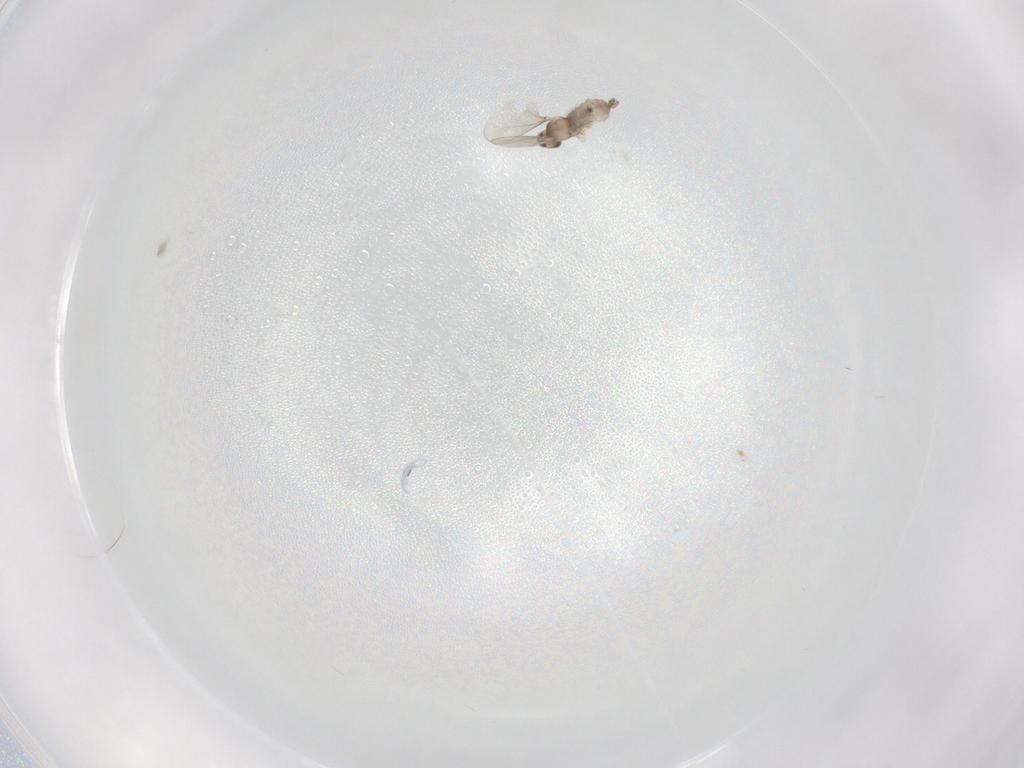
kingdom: Animalia
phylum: Arthropoda
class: Insecta
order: Diptera
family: Cecidomyiidae
